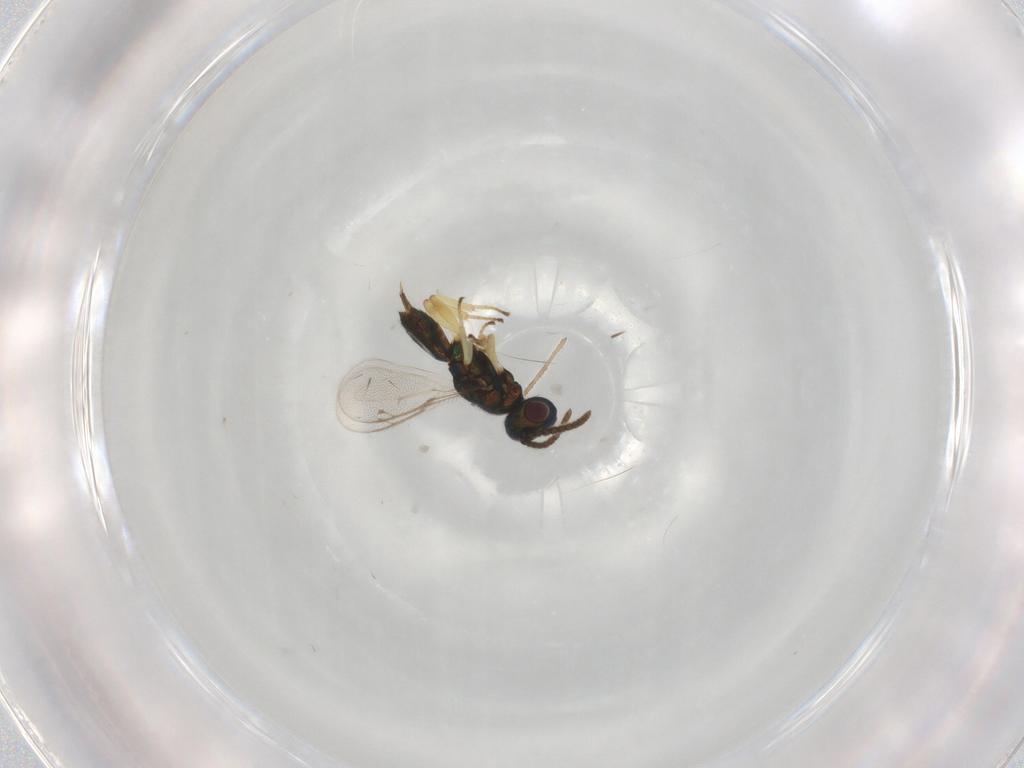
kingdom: Animalia
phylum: Arthropoda
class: Insecta
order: Hymenoptera
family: Eupelmidae
